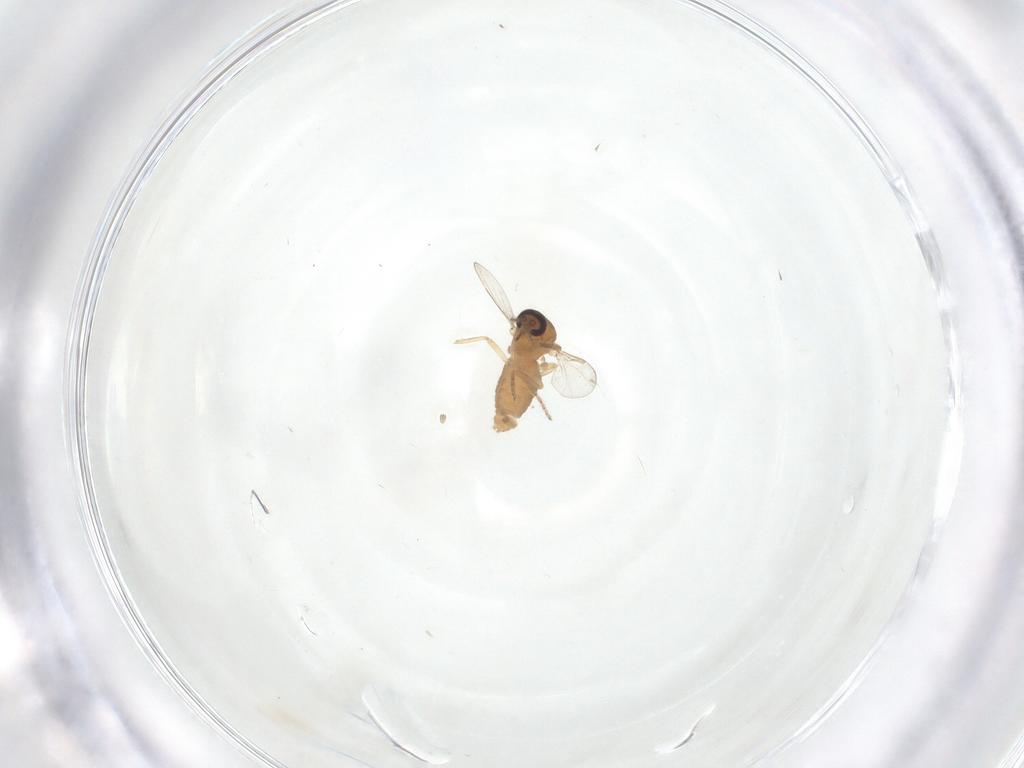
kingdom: Animalia
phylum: Arthropoda
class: Insecta
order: Diptera
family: Ceratopogonidae
